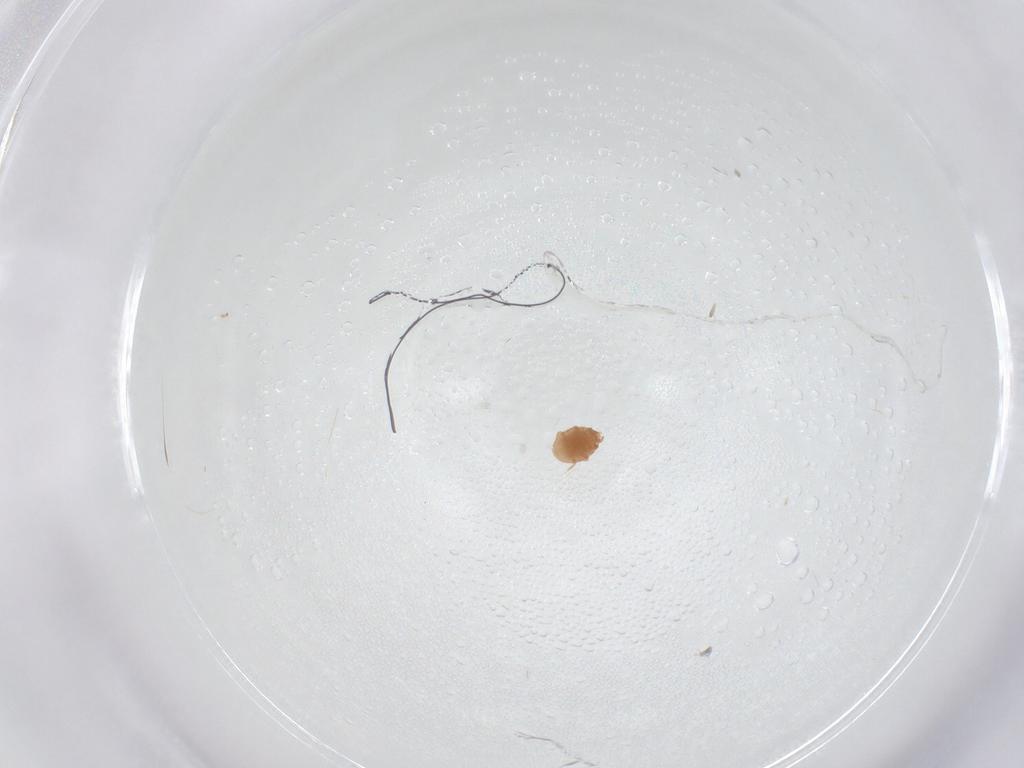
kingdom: Animalia
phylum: Arthropoda
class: Arachnida
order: Mesostigmata
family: Trematuridae
